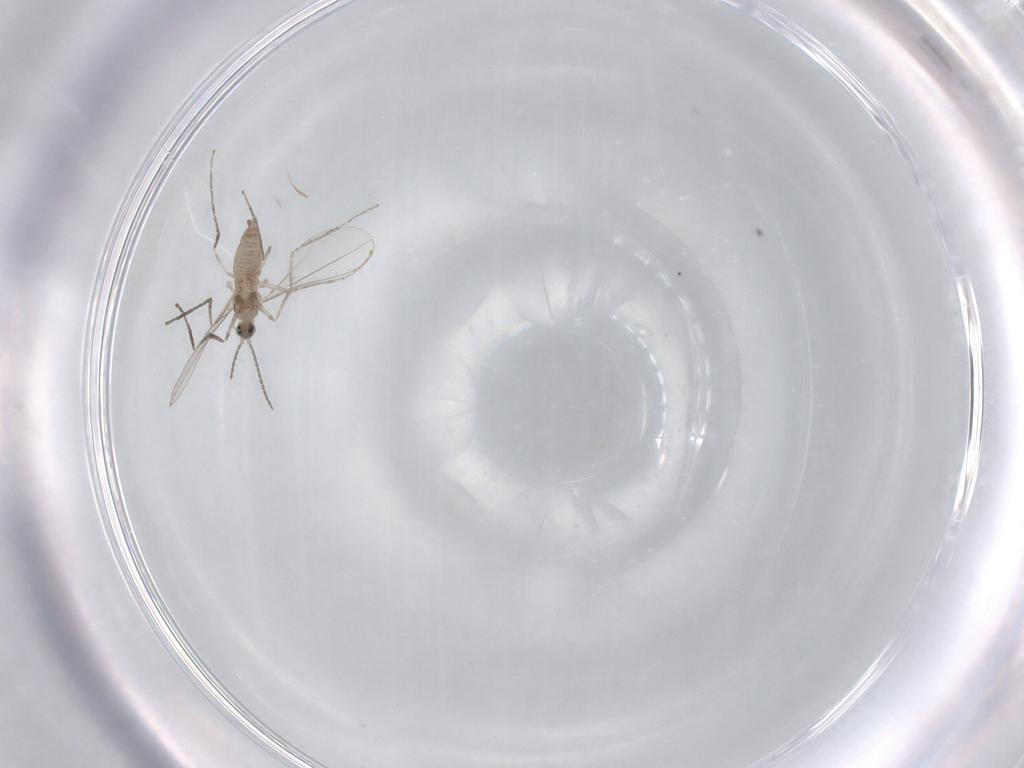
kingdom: Animalia
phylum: Arthropoda
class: Insecta
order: Diptera
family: Cecidomyiidae
